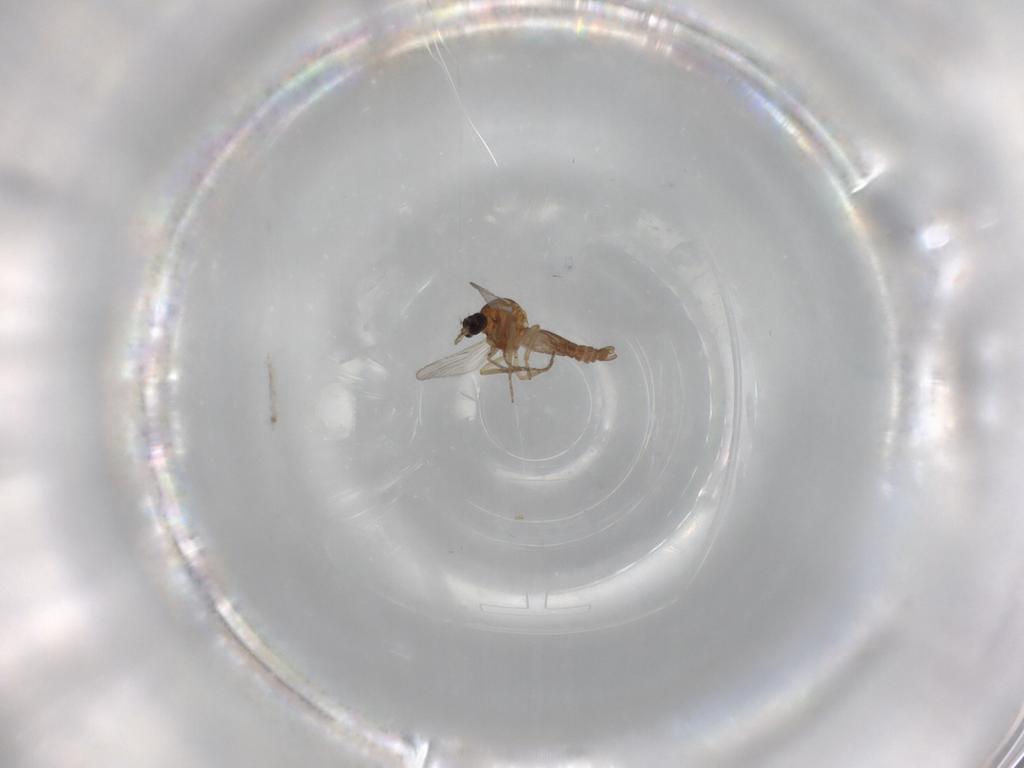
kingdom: Animalia
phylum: Arthropoda
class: Insecta
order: Diptera
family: Ceratopogonidae
